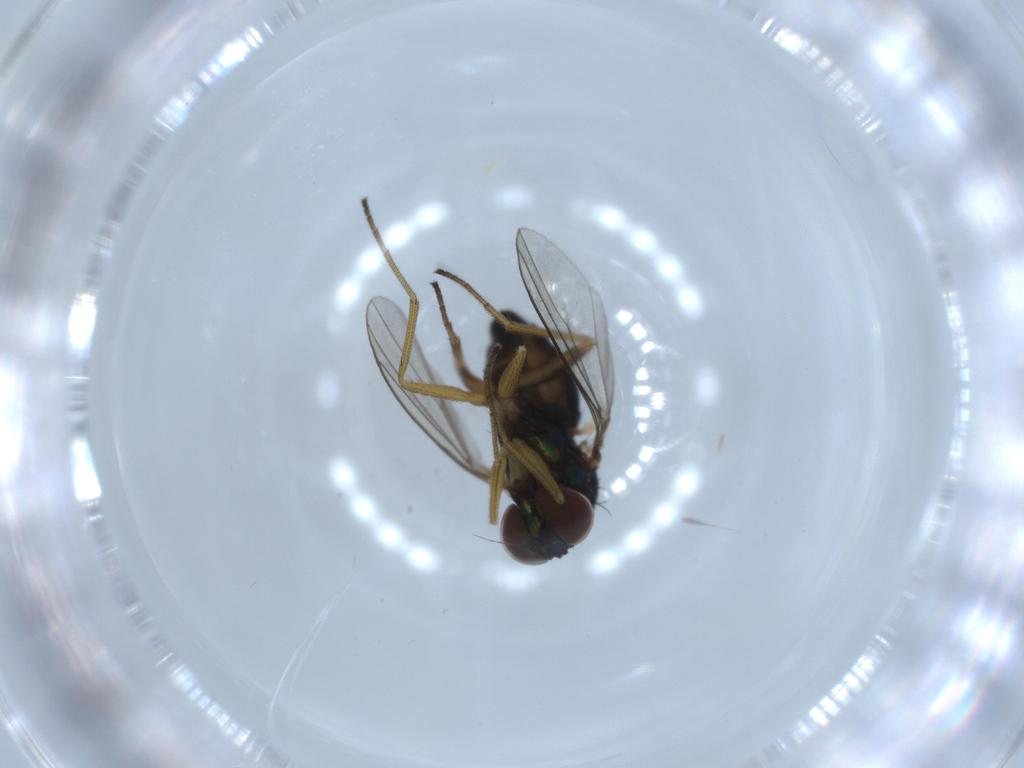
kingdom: Animalia
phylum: Arthropoda
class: Insecta
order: Diptera
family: Dolichopodidae
